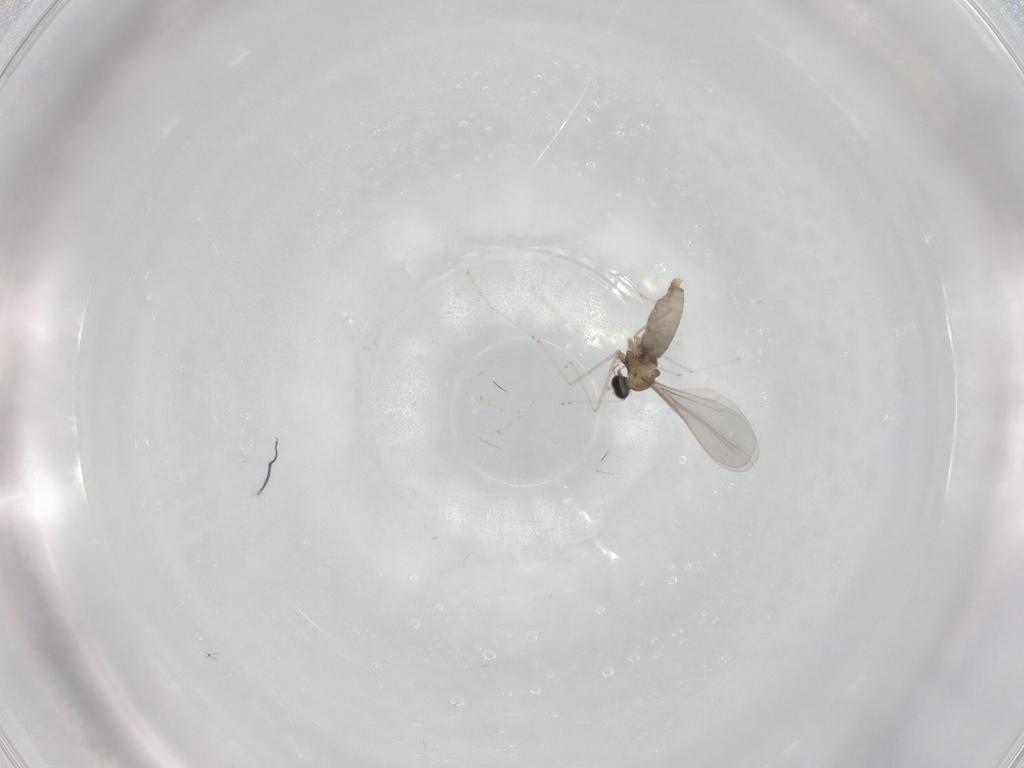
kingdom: Animalia
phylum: Arthropoda
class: Insecta
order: Diptera
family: Cecidomyiidae
